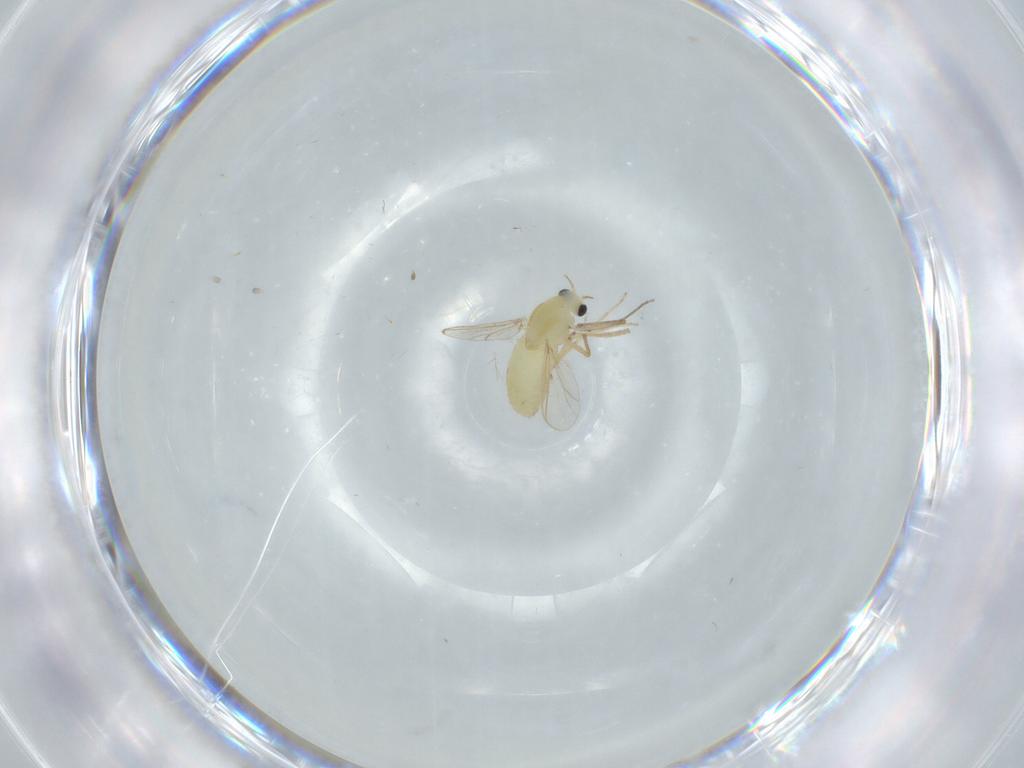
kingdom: Animalia
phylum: Arthropoda
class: Insecta
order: Diptera
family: Chironomidae
